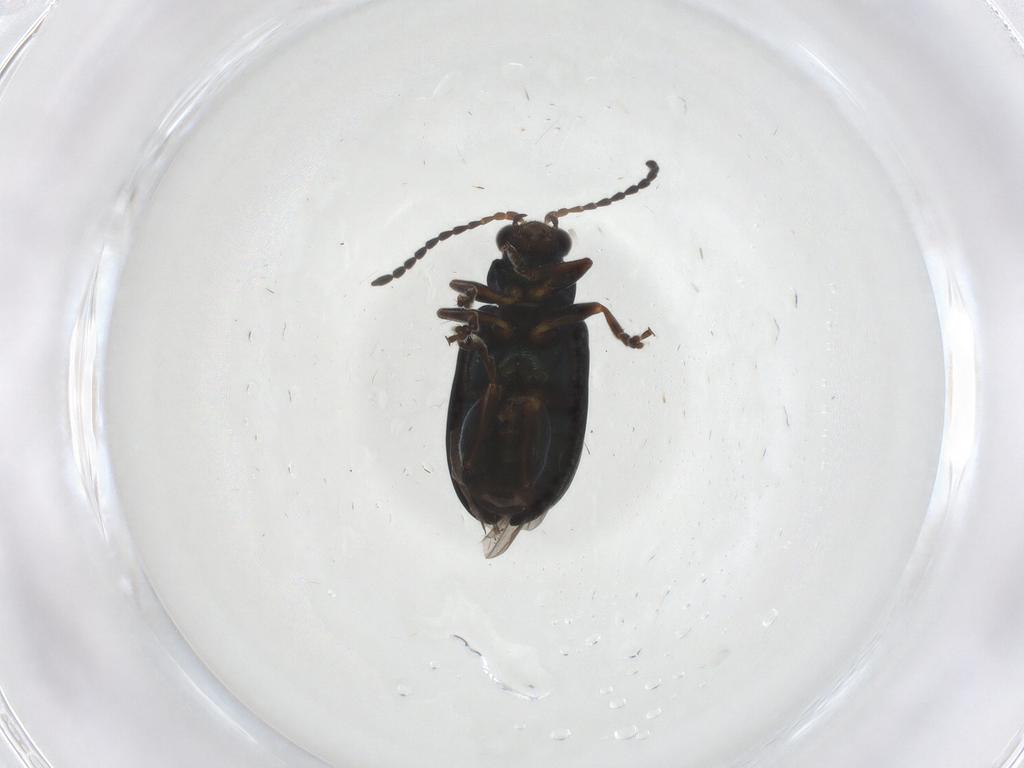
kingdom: Animalia
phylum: Arthropoda
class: Insecta
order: Coleoptera
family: Chrysomelidae
